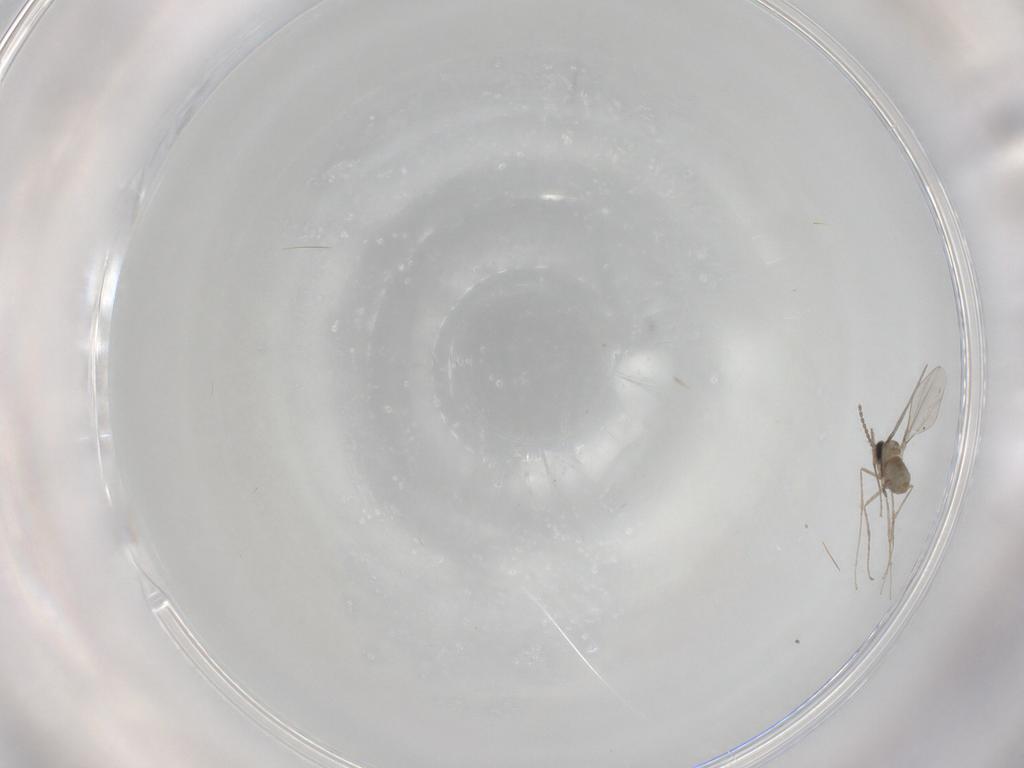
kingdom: Animalia
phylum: Arthropoda
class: Insecta
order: Diptera
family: Cecidomyiidae
